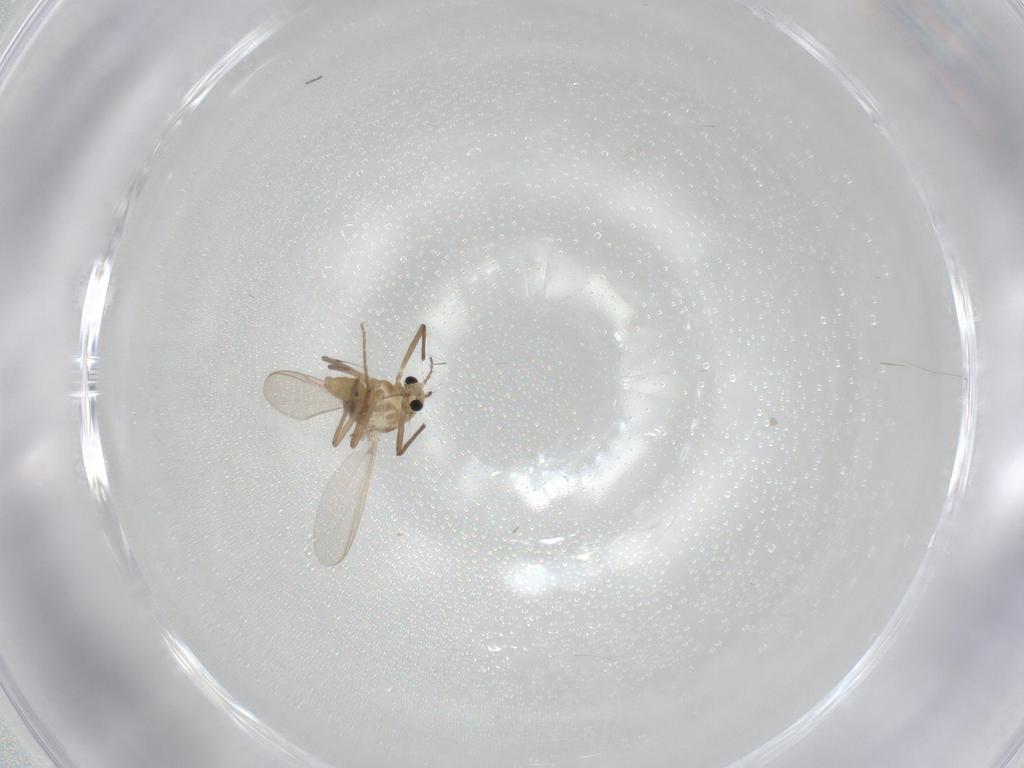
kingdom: Animalia
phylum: Arthropoda
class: Insecta
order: Diptera
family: Chironomidae
